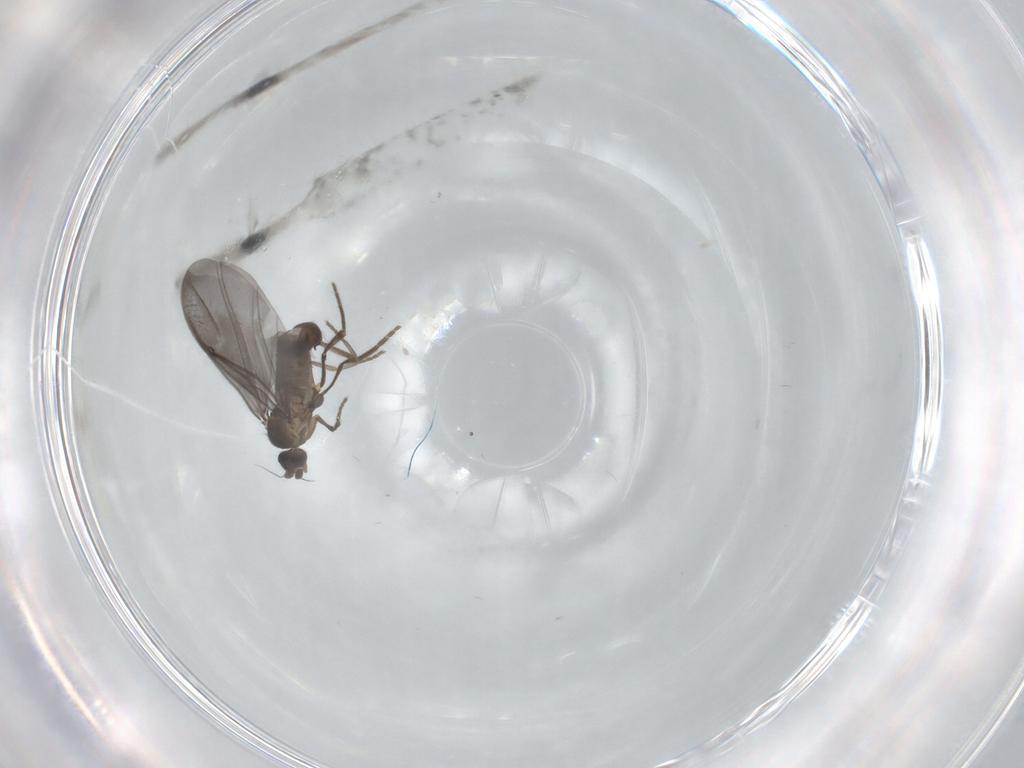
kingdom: Animalia
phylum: Arthropoda
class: Insecta
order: Diptera
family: Phoridae
